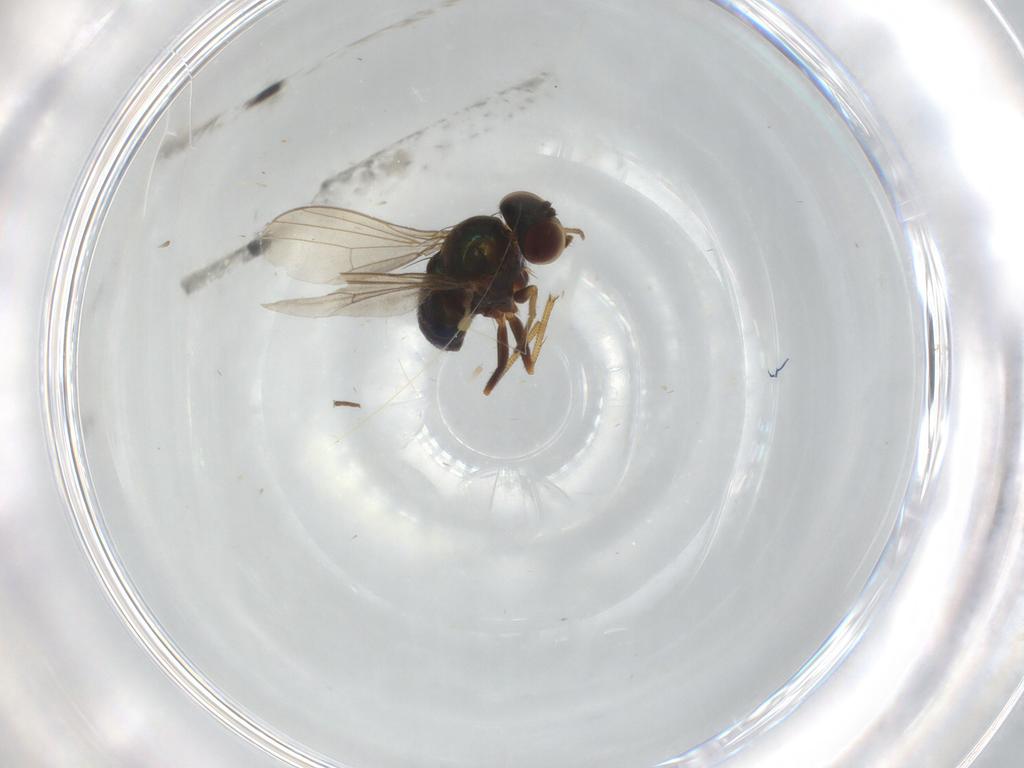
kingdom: Animalia
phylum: Arthropoda
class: Insecta
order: Diptera
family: Dolichopodidae
